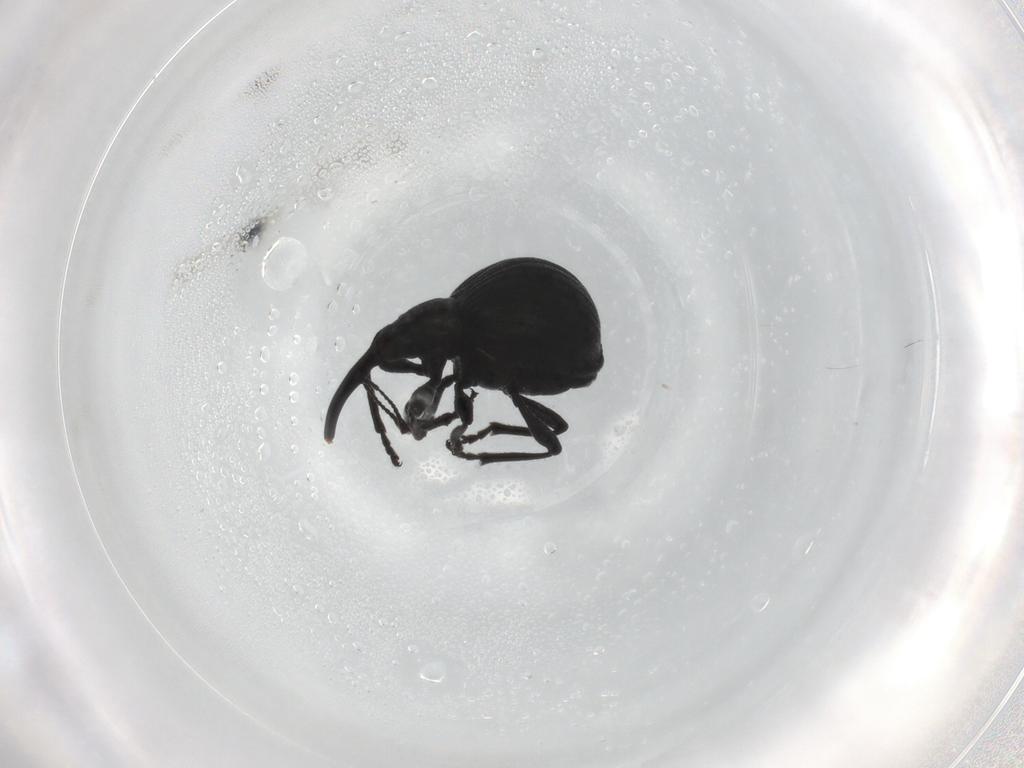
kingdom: Animalia
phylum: Arthropoda
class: Insecta
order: Coleoptera
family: Brentidae
